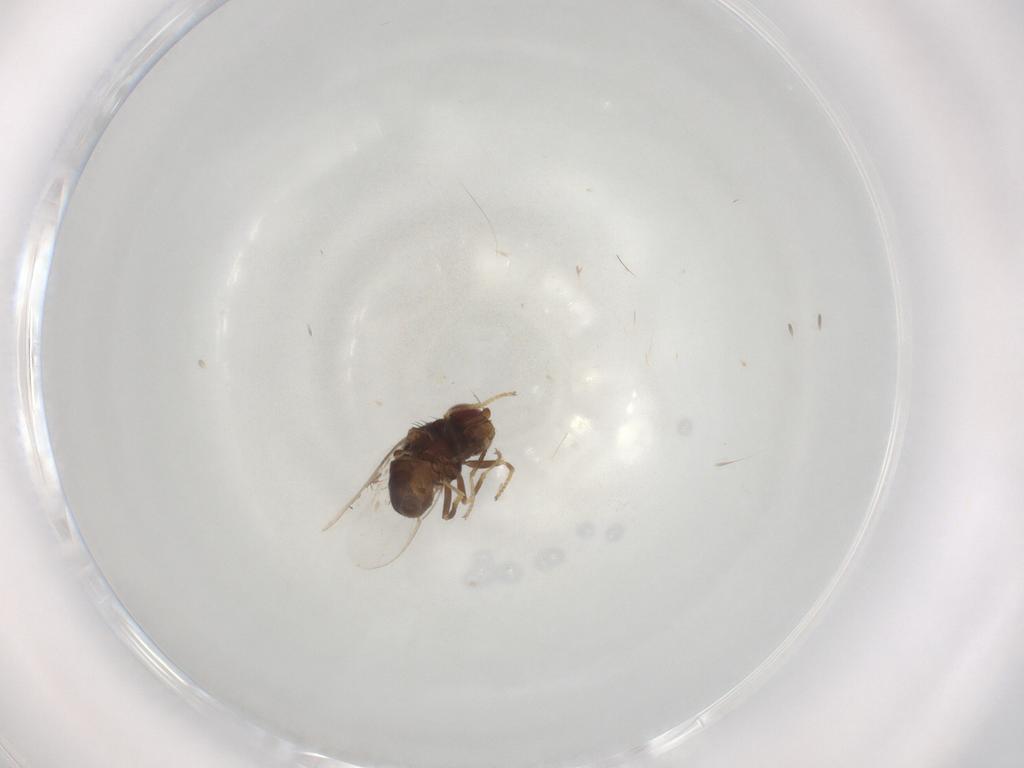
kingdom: Animalia
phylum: Arthropoda
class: Insecta
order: Diptera
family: Chloropidae
